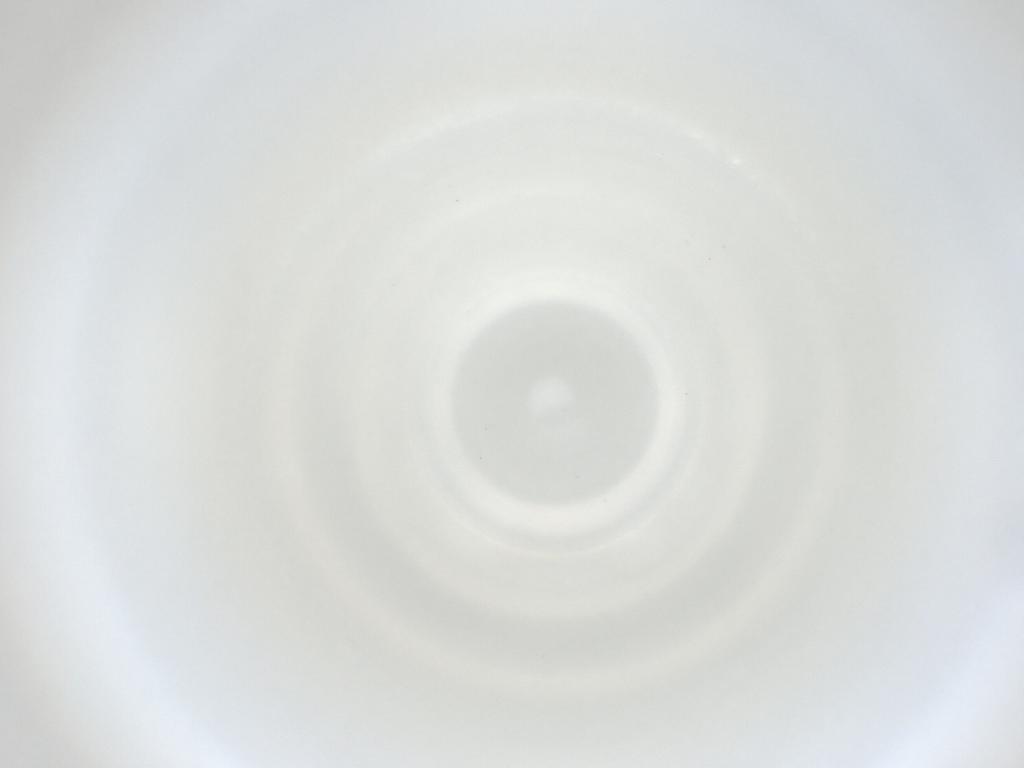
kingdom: Animalia
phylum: Arthropoda
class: Insecta
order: Diptera
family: Cecidomyiidae
